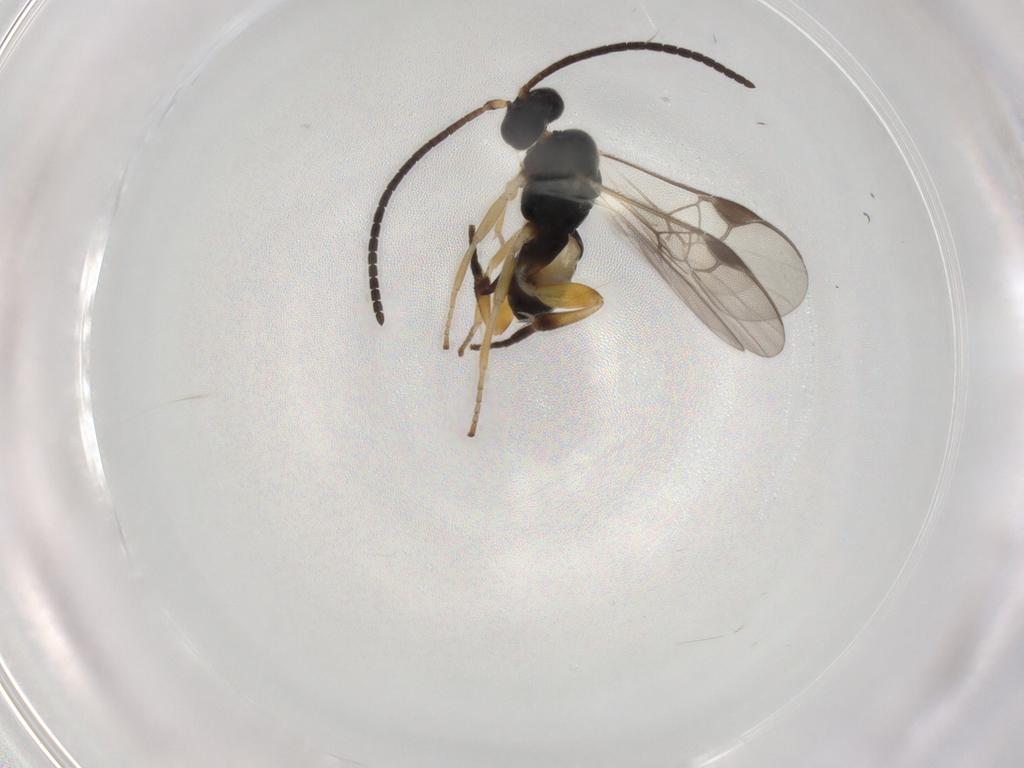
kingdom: Animalia
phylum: Arthropoda
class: Insecta
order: Hymenoptera
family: Braconidae
